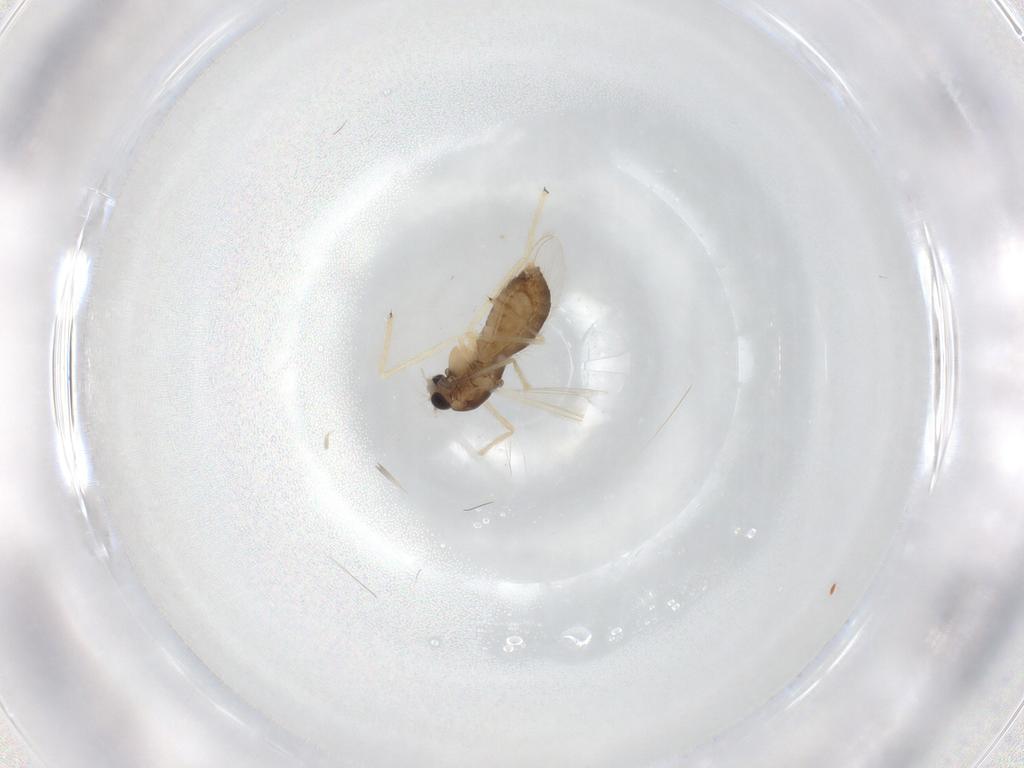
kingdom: Animalia
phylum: Arthropoda
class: Insecta
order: Diptera
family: Chironomidae
